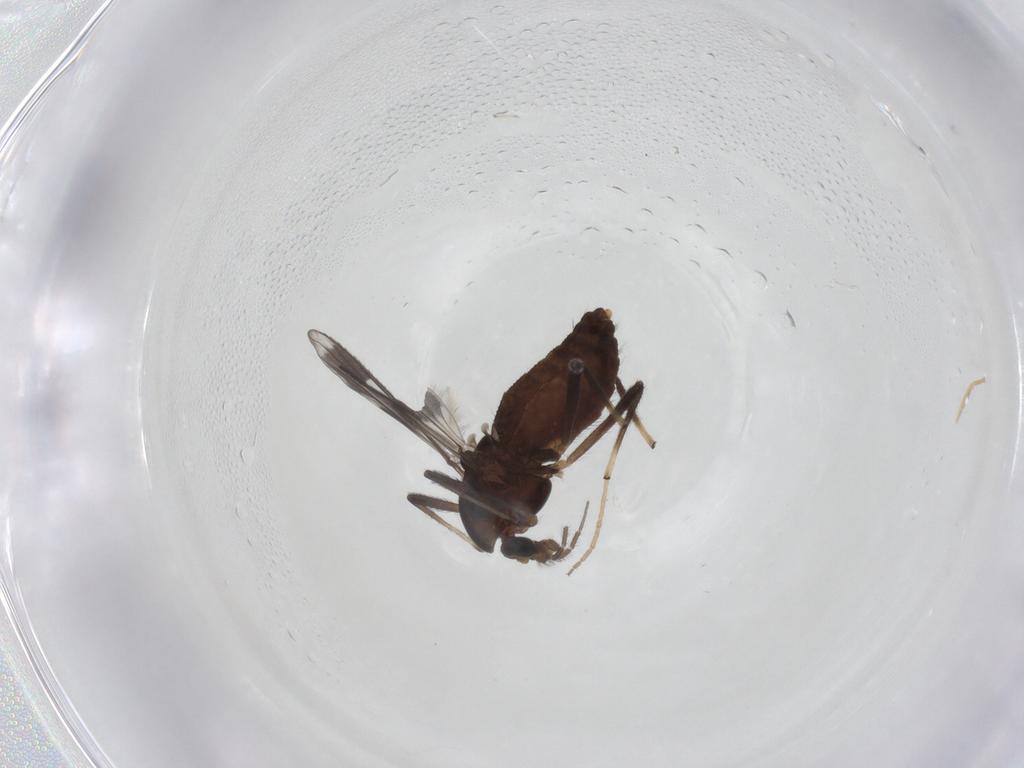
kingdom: Animalia
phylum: Arthropoda
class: Insecta
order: Diptera
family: Chironomidae
